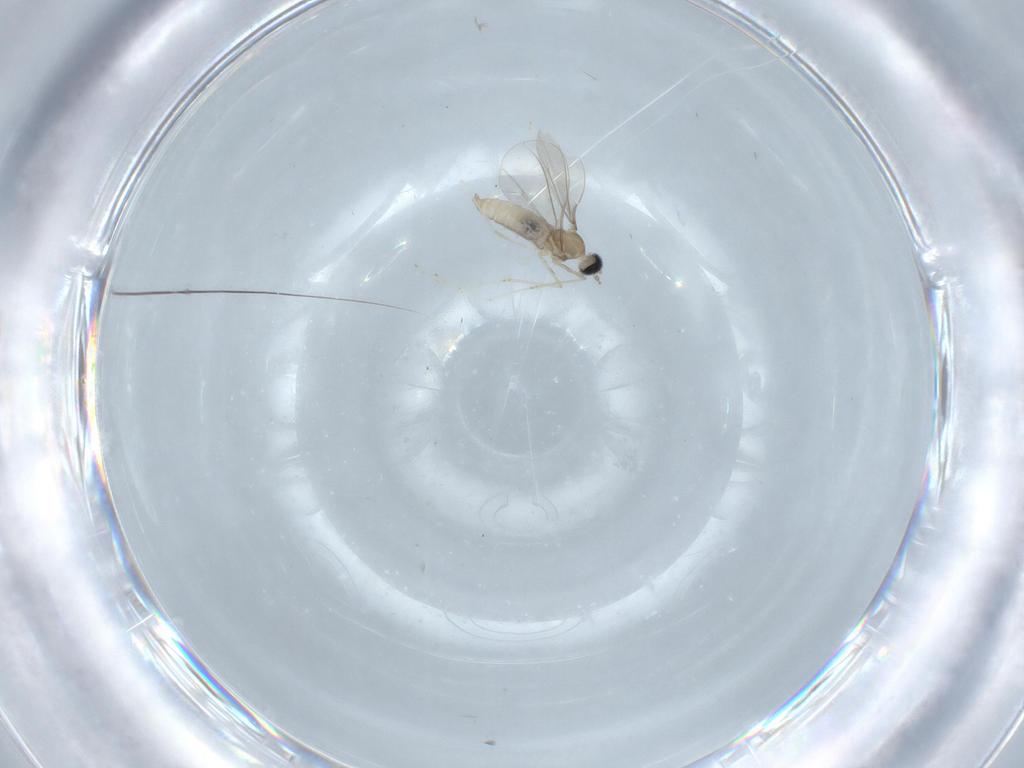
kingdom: Animalia
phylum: Arthropoda
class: Insecta
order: Diptera
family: Cecidomyiidae
